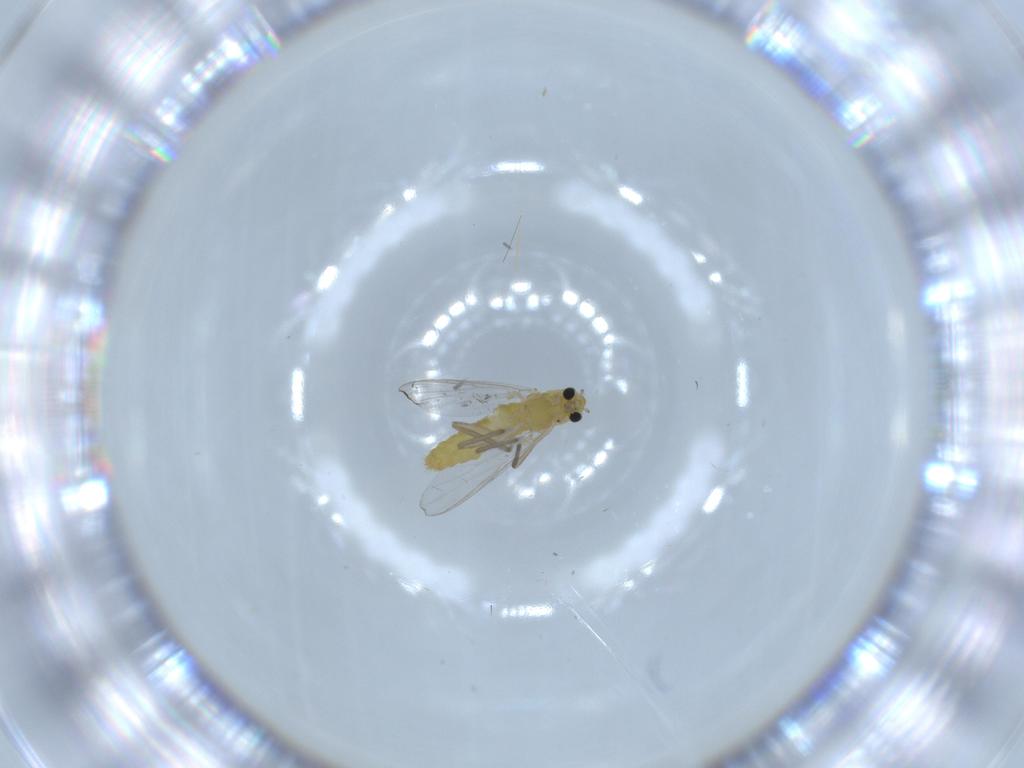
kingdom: Animalia
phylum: Arthropoda
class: Insecta
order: Diptera
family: Chironomidae
